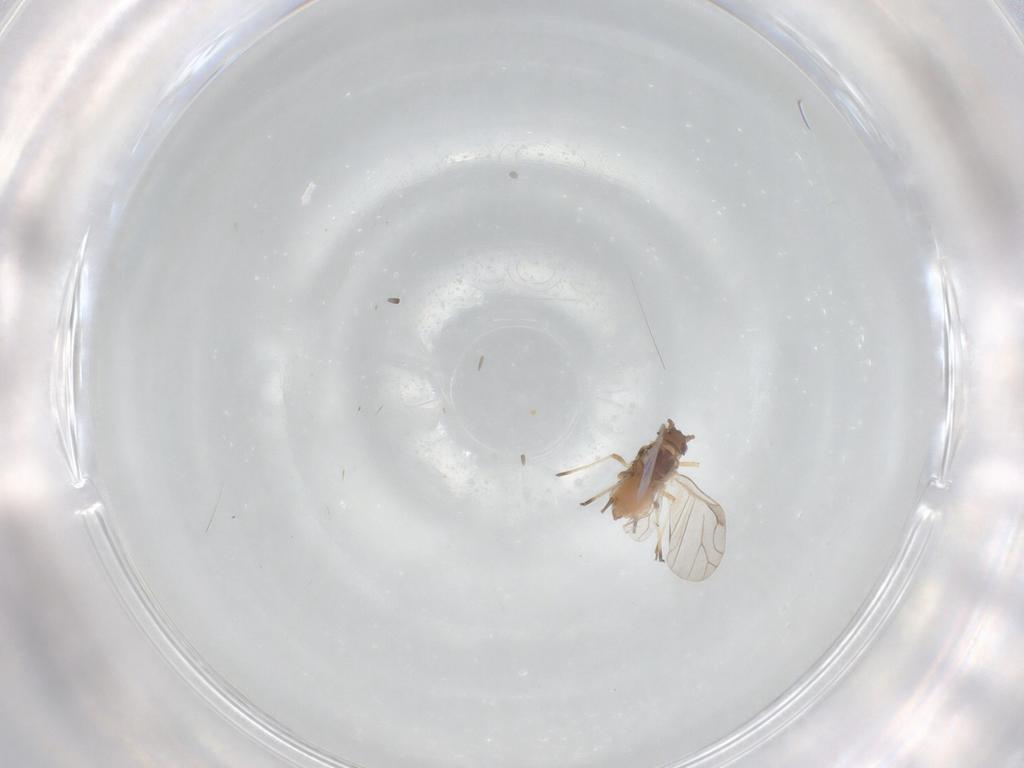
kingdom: Animalia
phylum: Arthropoda
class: Insecta
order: Hemiptera
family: Aphididae
